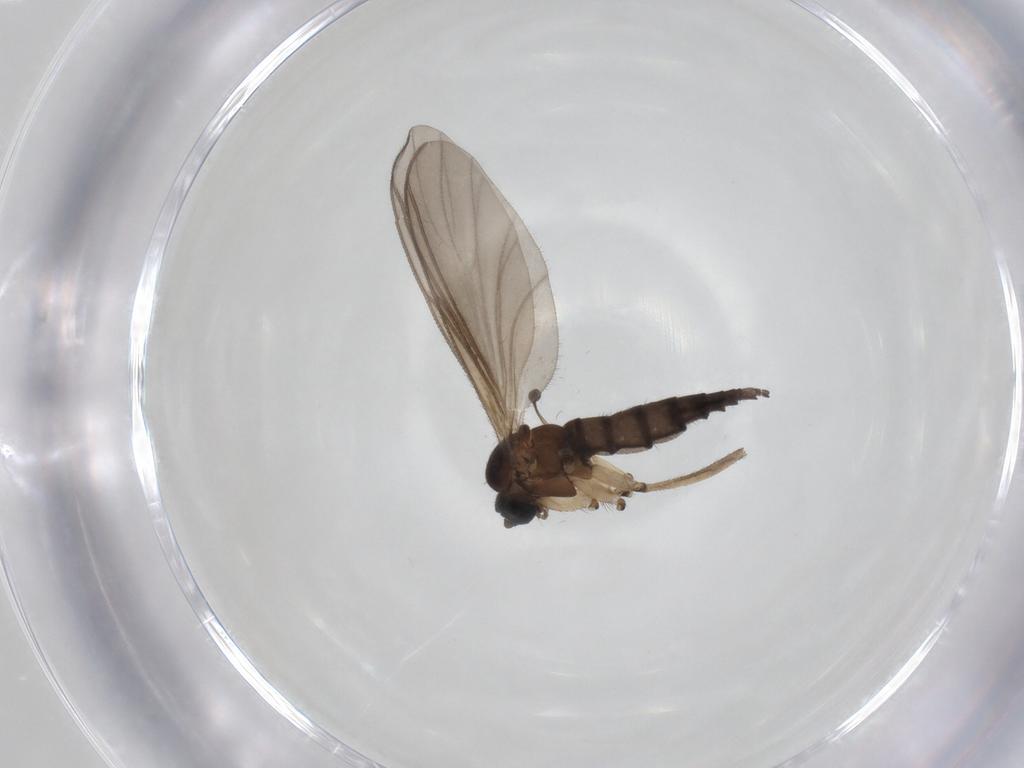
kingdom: Animalia
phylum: Arthropoda
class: Insecta
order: Diptera
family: Sciaridae
